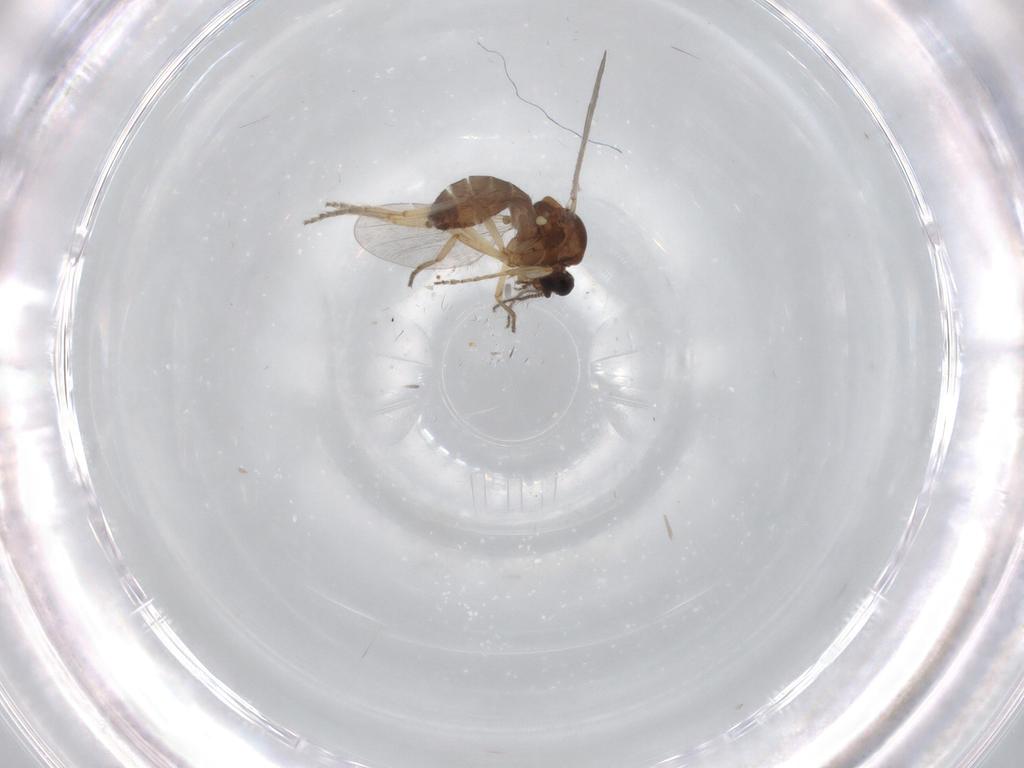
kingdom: Animalia
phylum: Arthropoda
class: Insecta
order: Diptera
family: Ceratopogonidae
